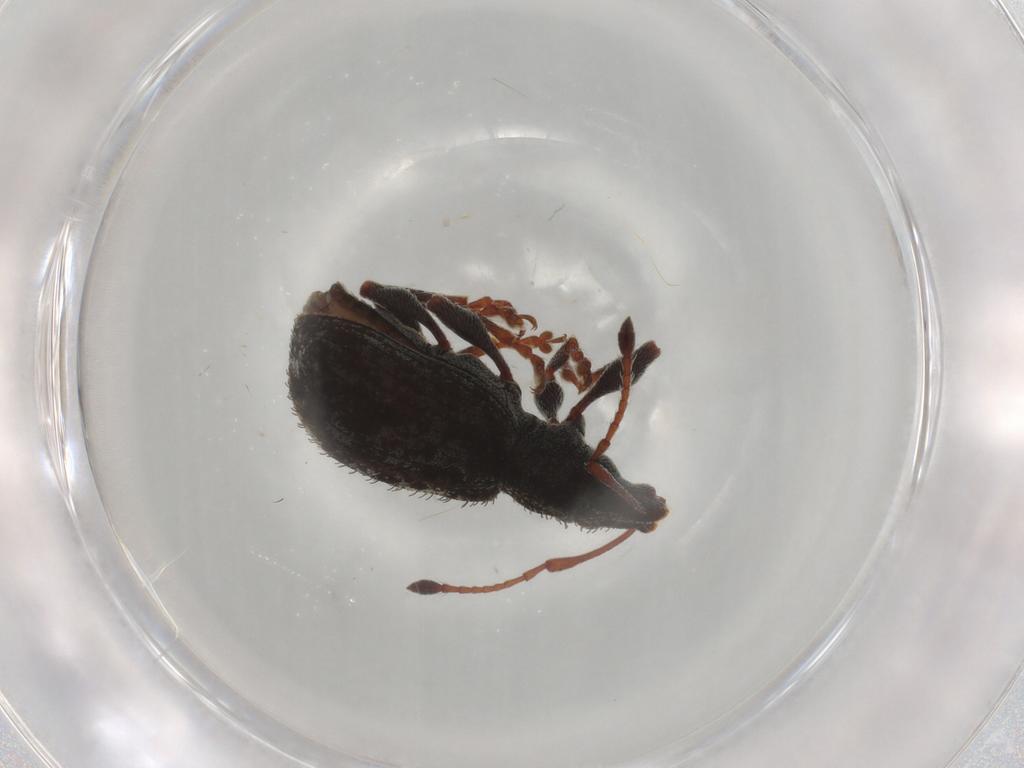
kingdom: Animalia
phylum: Arthropoda
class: Insecta
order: Coleoptera
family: Curculionidae
